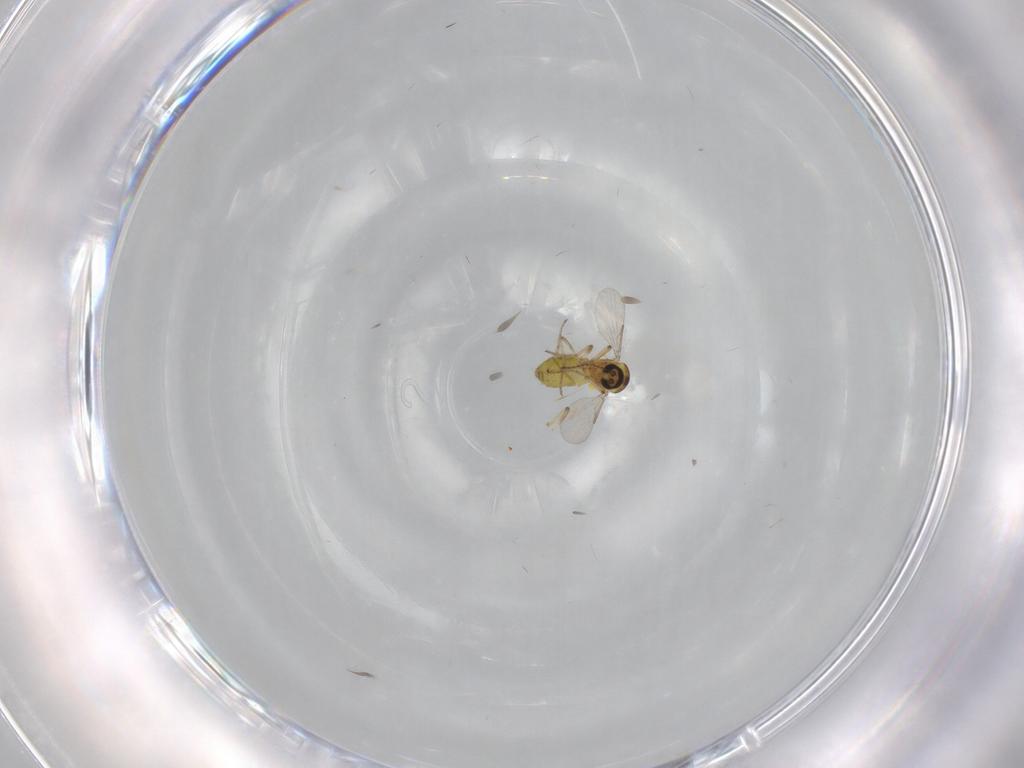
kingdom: Animalia
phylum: Arthropoda
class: Insecta
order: Diptera
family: Ceratopogonidae
